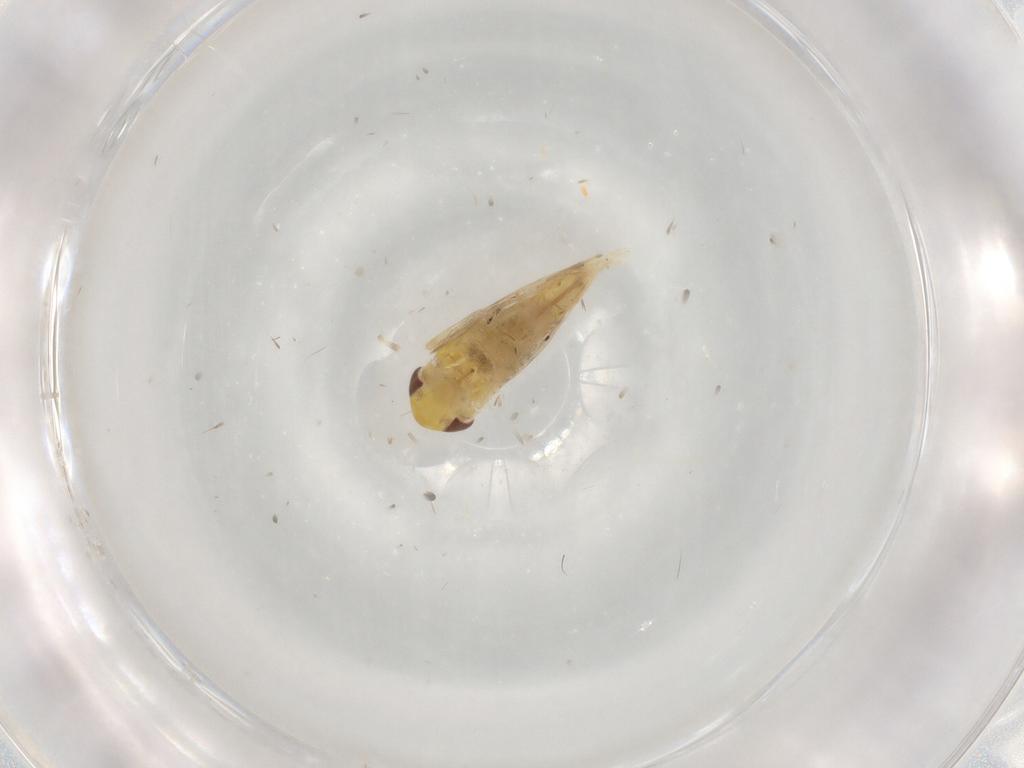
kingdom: Animalia
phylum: Arthropoda
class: Insecta
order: Hemiptera
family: Cicadellidae
